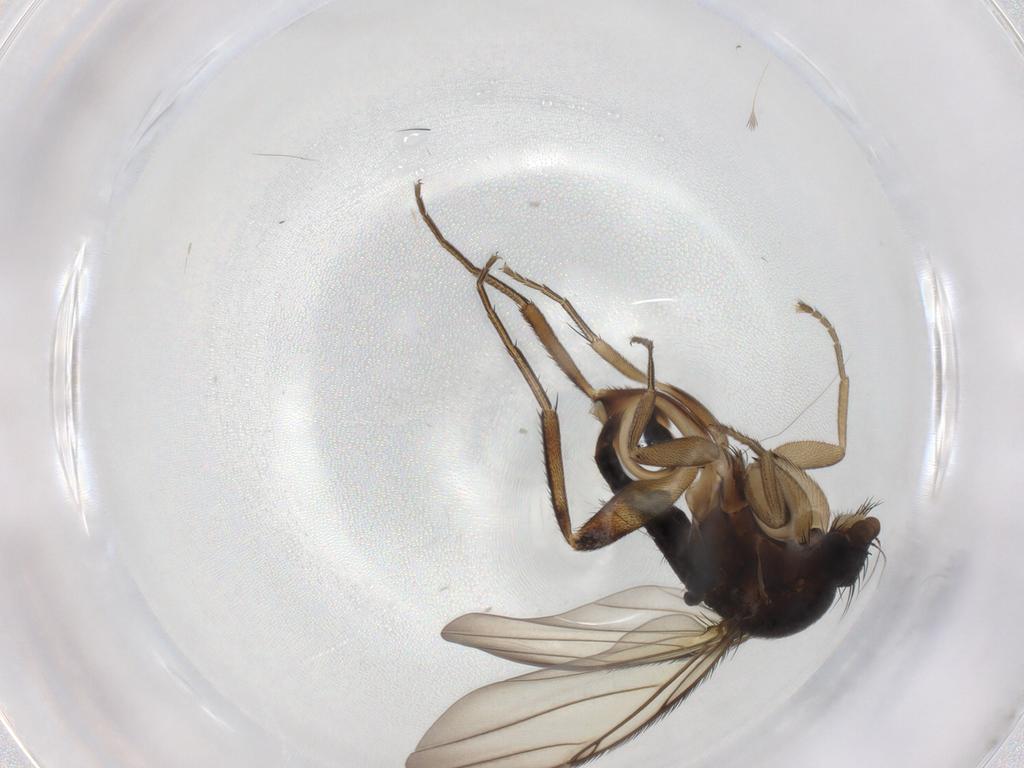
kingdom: Animalia
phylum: Arthropoda
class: Insecta
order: Diptera
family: Phoridae
